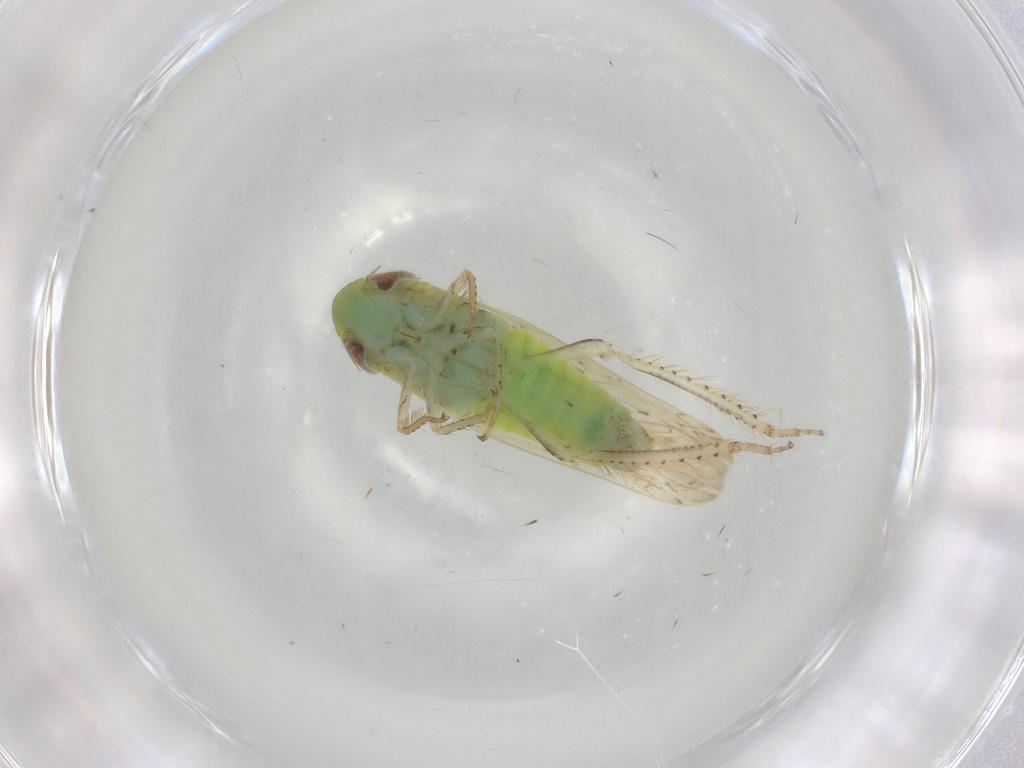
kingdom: Animalia
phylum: Arthropoda
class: Insecta
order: Hemiptera
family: Cicadellidae
